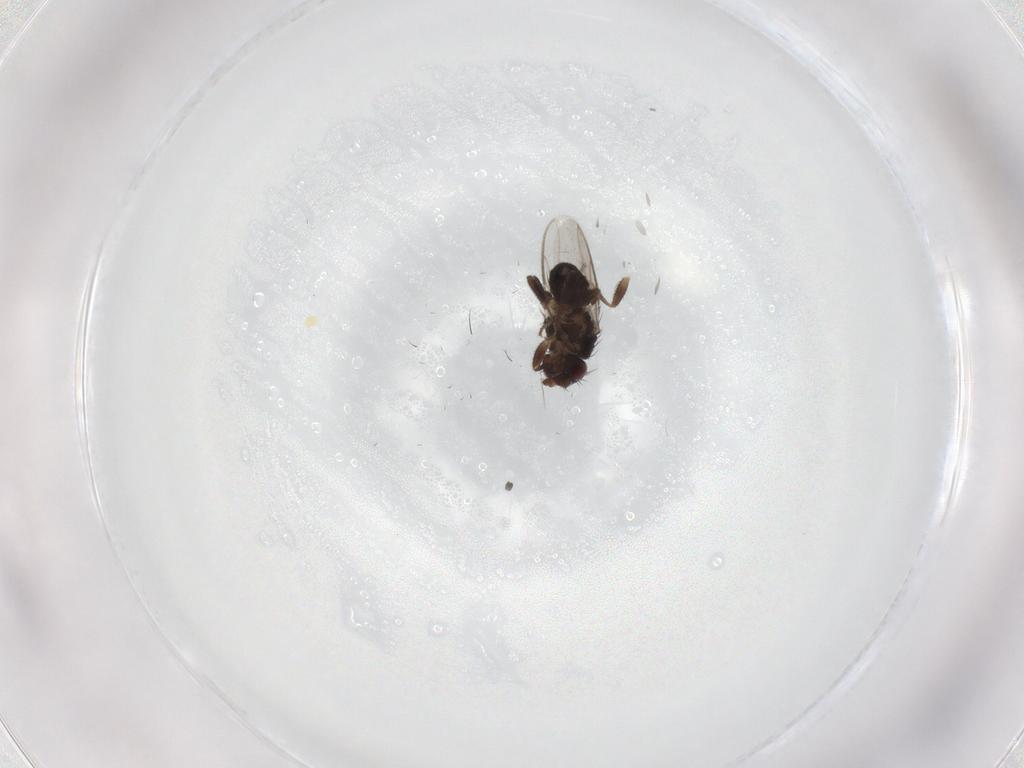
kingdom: Animalia
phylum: Arthropoda
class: Insecta
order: Diptera
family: Sphaeroceridae
